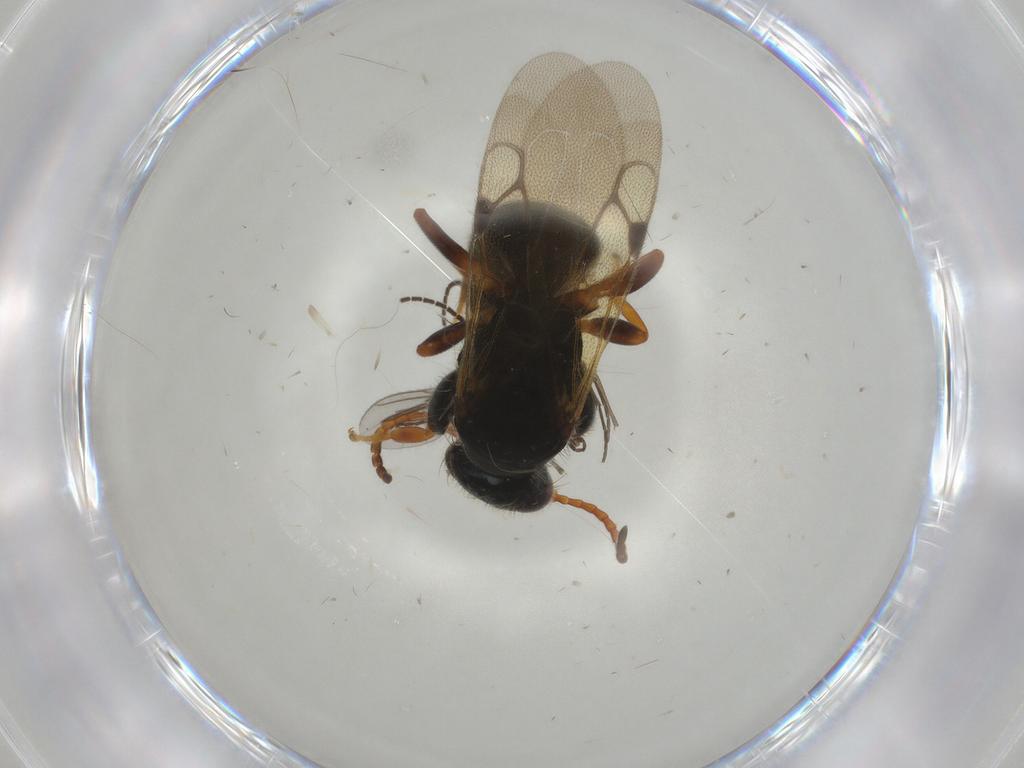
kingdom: Animalia
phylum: Arthropoda
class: Insecta
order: Hymenoptera
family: Bethylidae
